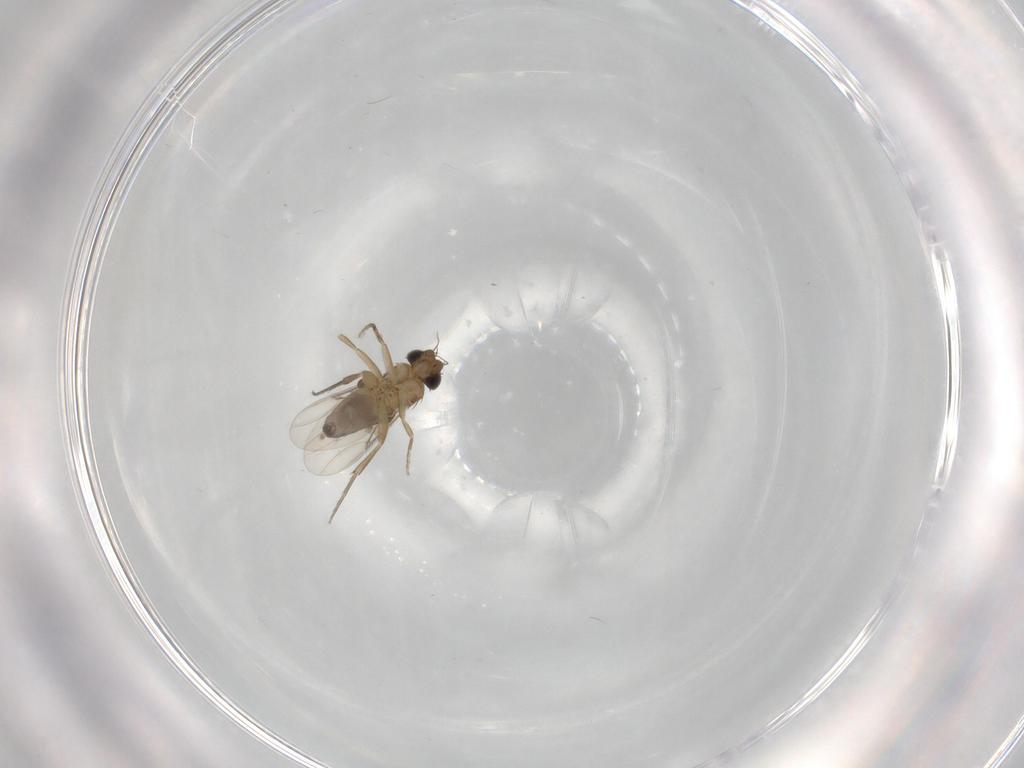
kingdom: Animalia
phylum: Arthropoda
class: Insecta
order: Diptera
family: Phoridae
